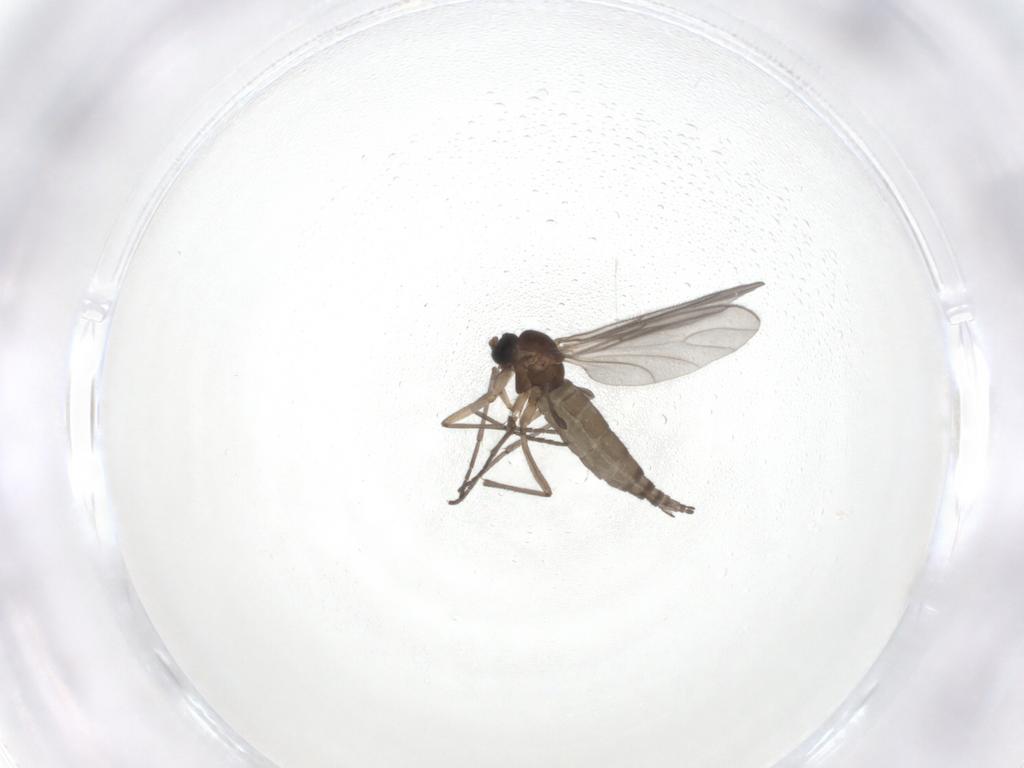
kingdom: Animalia
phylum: Arthropoda
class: Insecta
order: Diptera
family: Sciaridae
